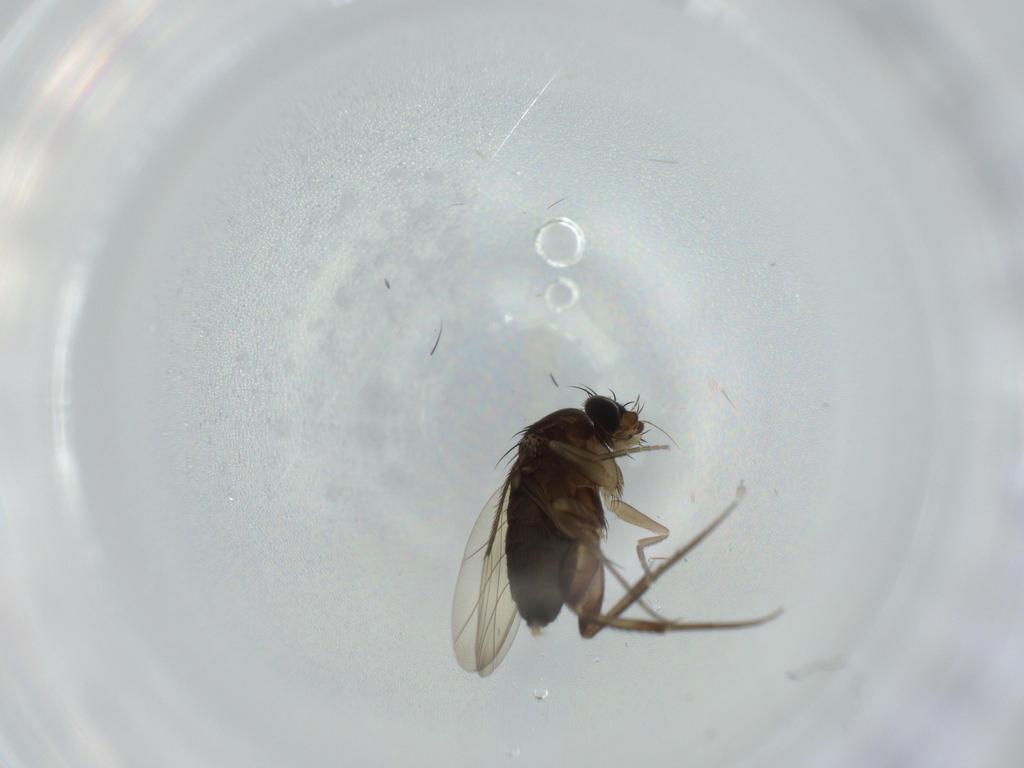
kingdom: Animalia
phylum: Arthropoda
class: Insecta
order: Diptera
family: Phoridae
